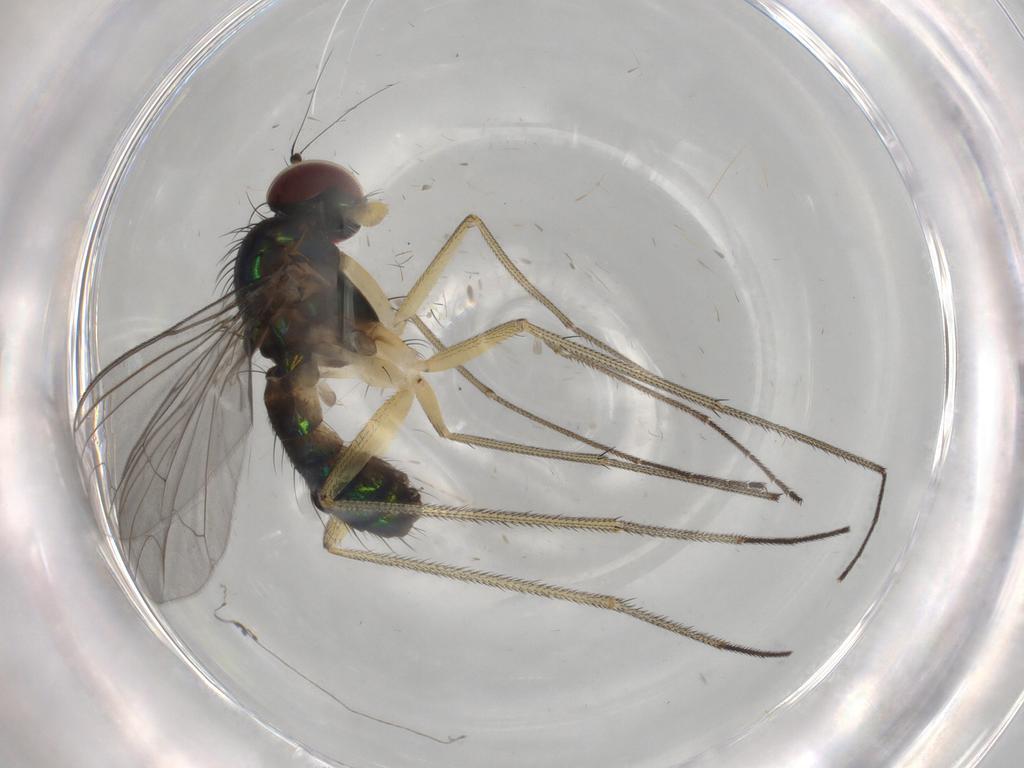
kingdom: Animalia
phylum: Arthropoda
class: Insecta
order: Diptera
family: Dolichopodidae
